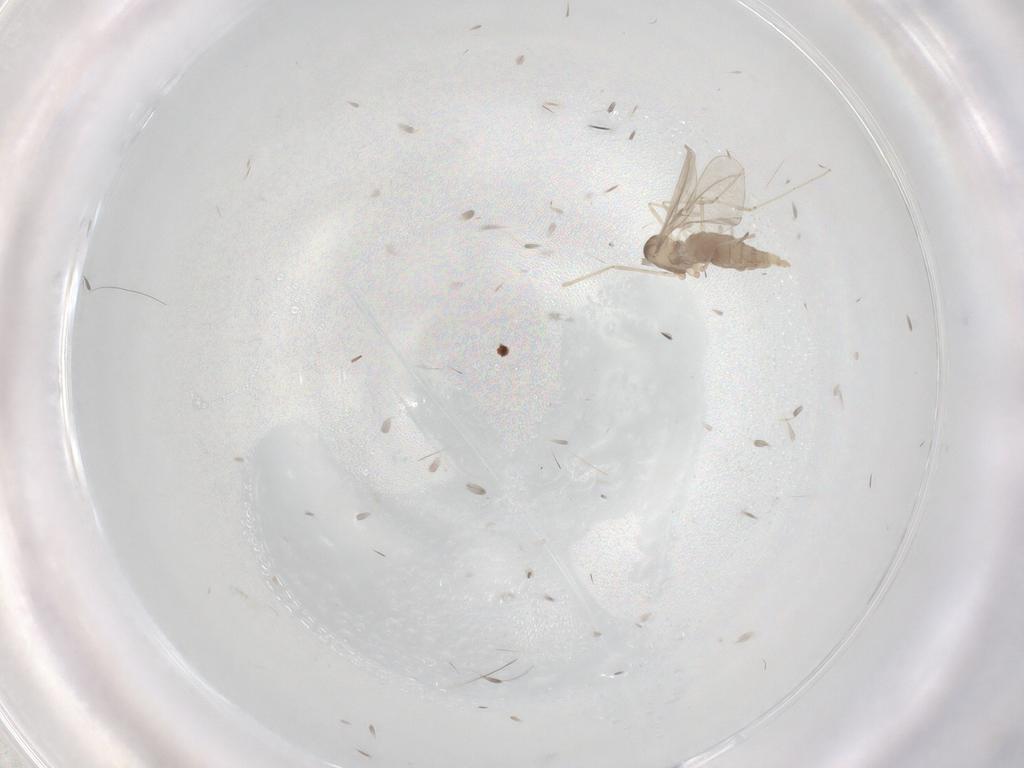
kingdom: Animalia
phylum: Arthropoda
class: Insecta
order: Diptera
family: Cecidomyiidae
